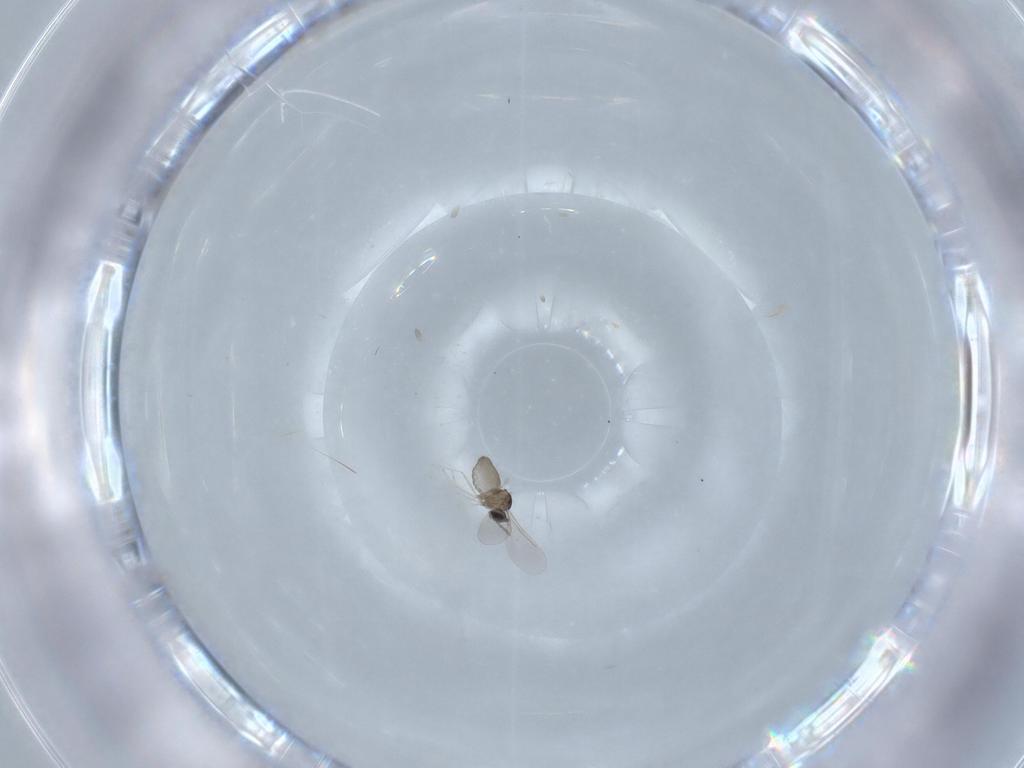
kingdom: Animalia
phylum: Arthropoda
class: Insecta
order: Diptera
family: Cecidomyiidae
